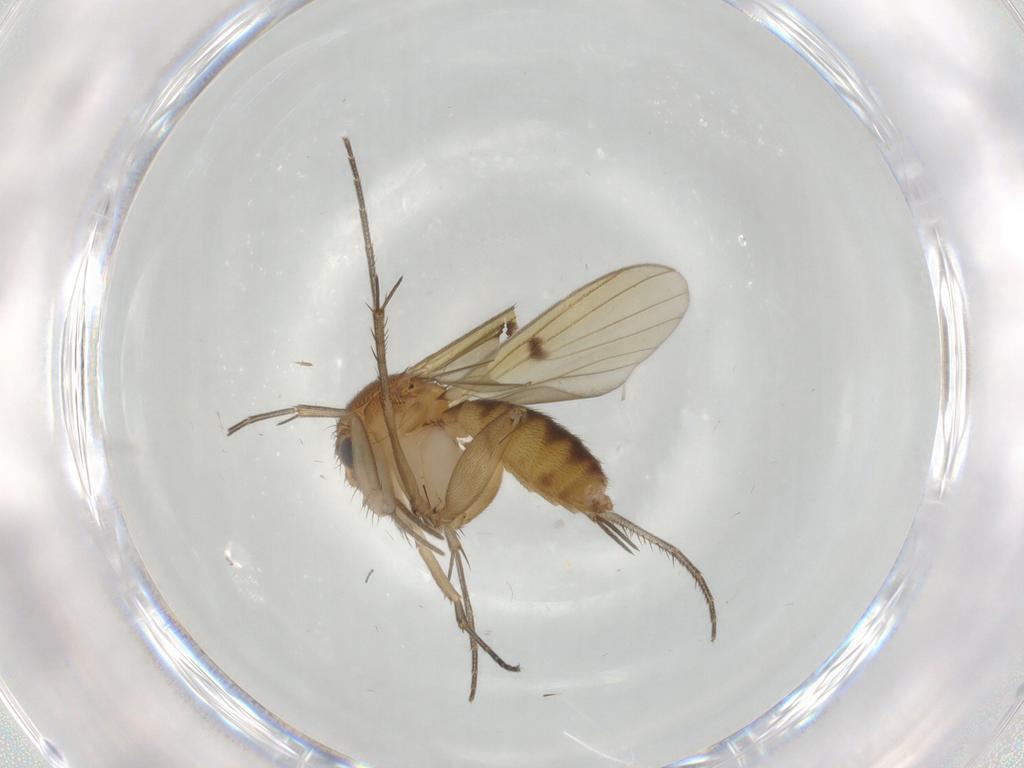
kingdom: Animalia
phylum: Arthropoda
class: Insecta
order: Diptera
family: Mycetophilidae
